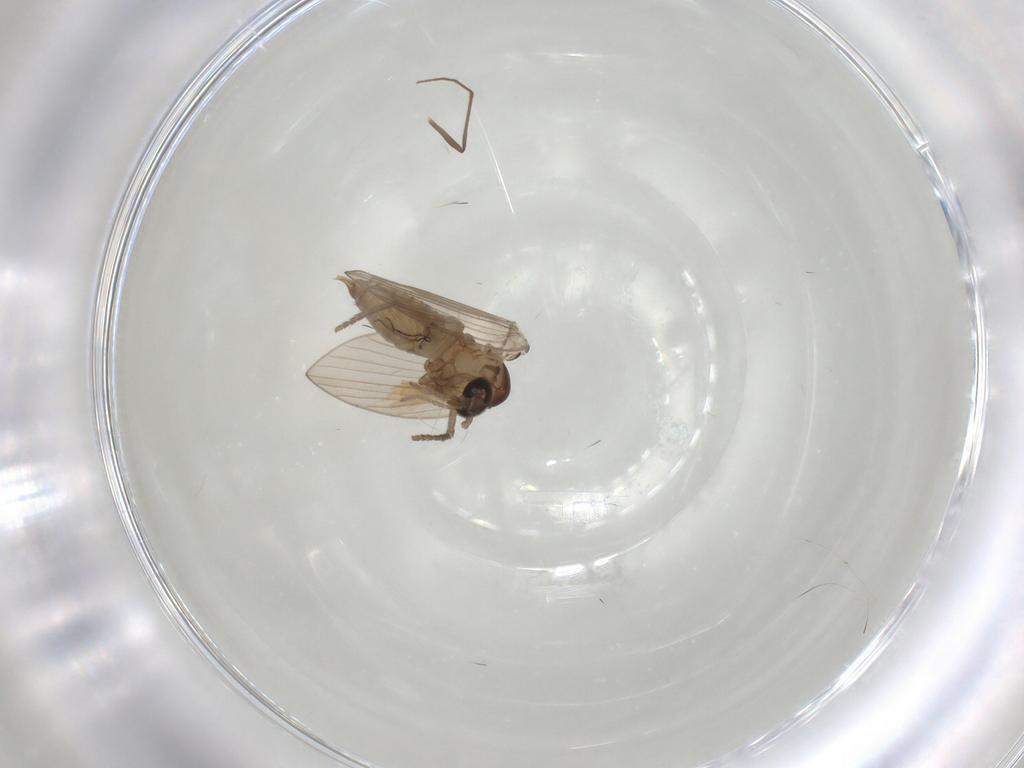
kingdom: Animalia
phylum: Arthropoda
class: Insecta
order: Diptera
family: Psychodidae
